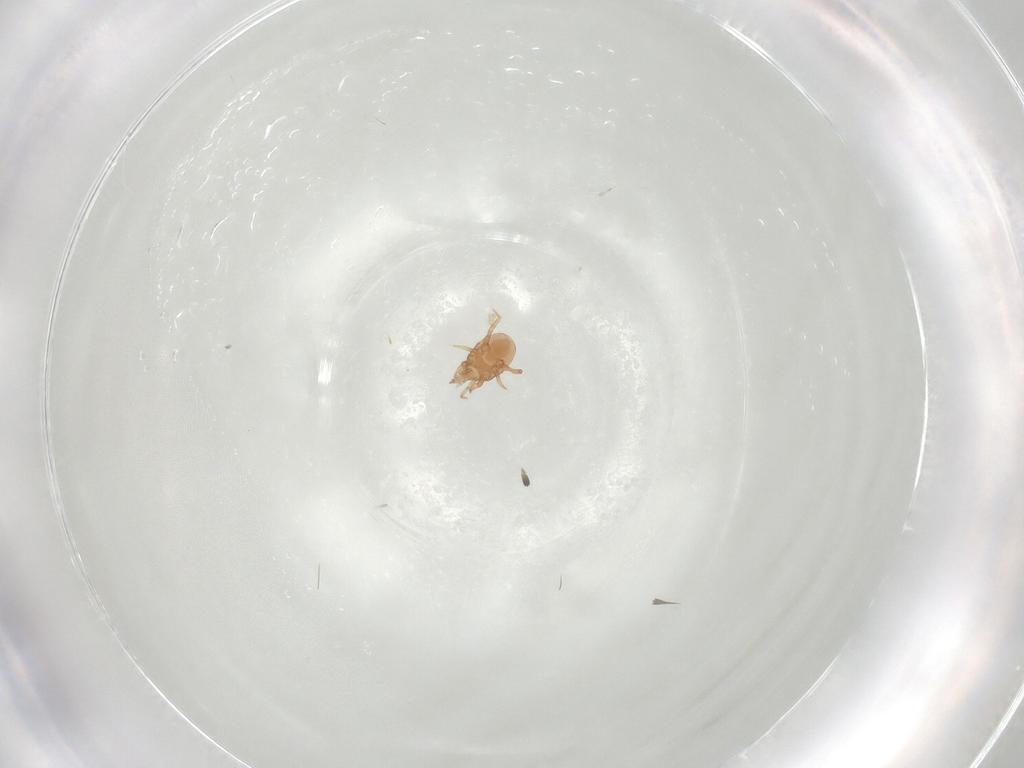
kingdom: Animalia
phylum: Arthropoda
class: Arachnida
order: Mesostigmata
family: Macrochelidae
